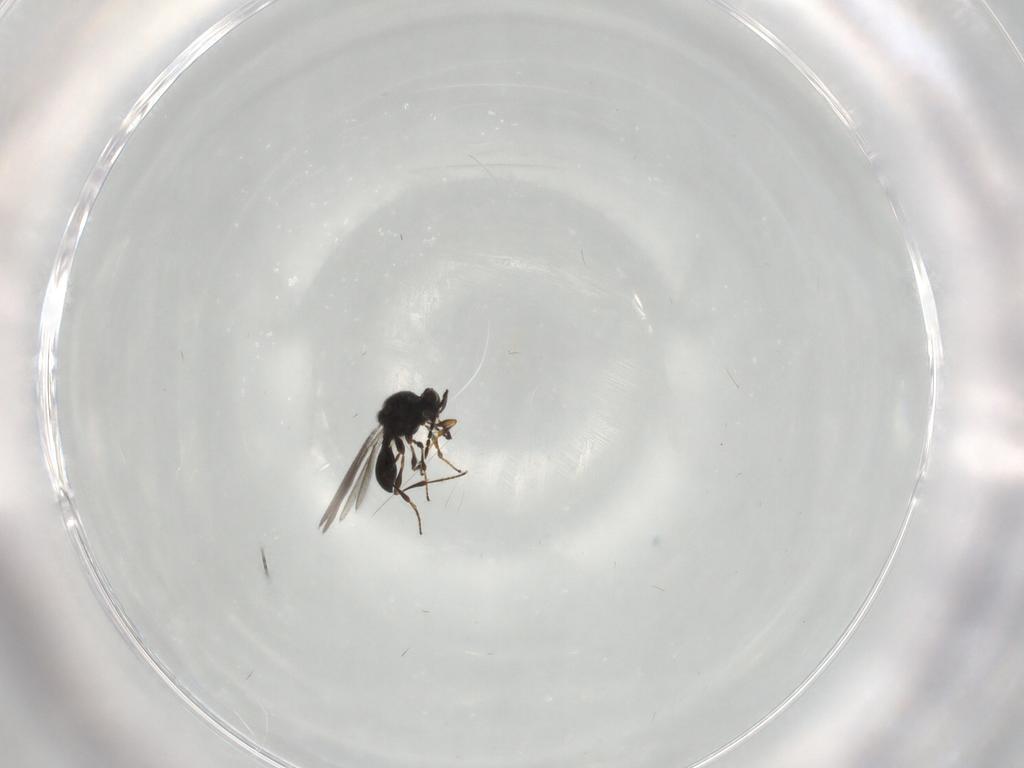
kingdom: Animalia
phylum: Arthropoda
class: Insecta
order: Hymenoptera
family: Platygastridae
